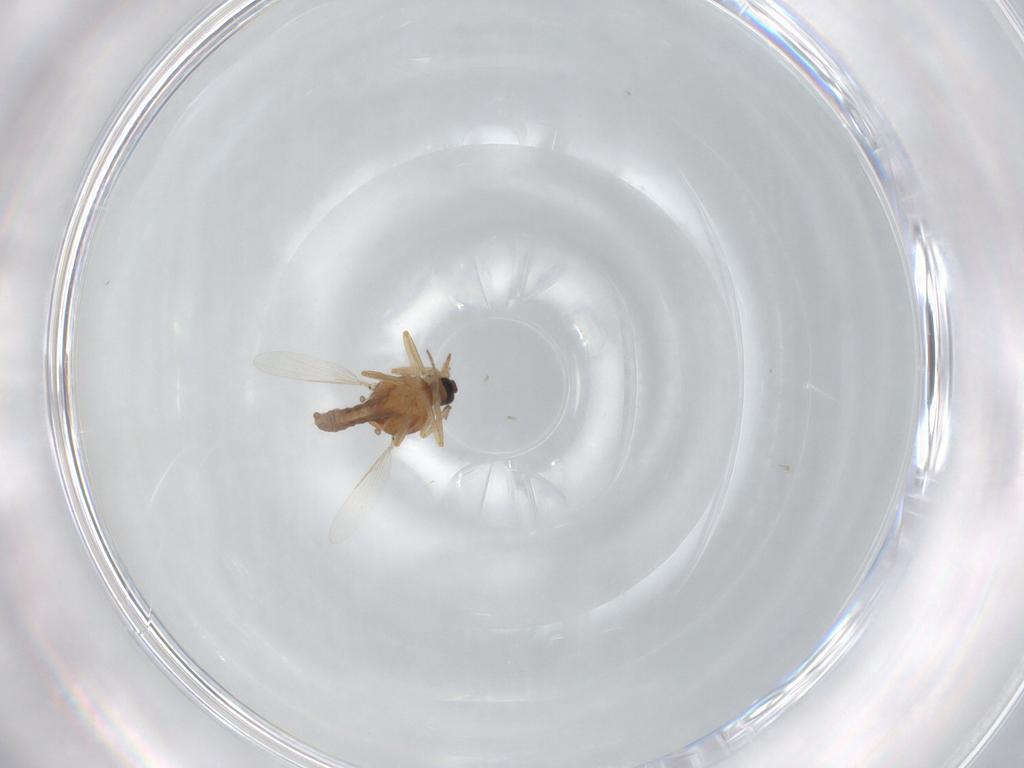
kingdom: Animalia
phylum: Arthropoda
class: Insecta
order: Diptera
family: Ceratopogonidae
